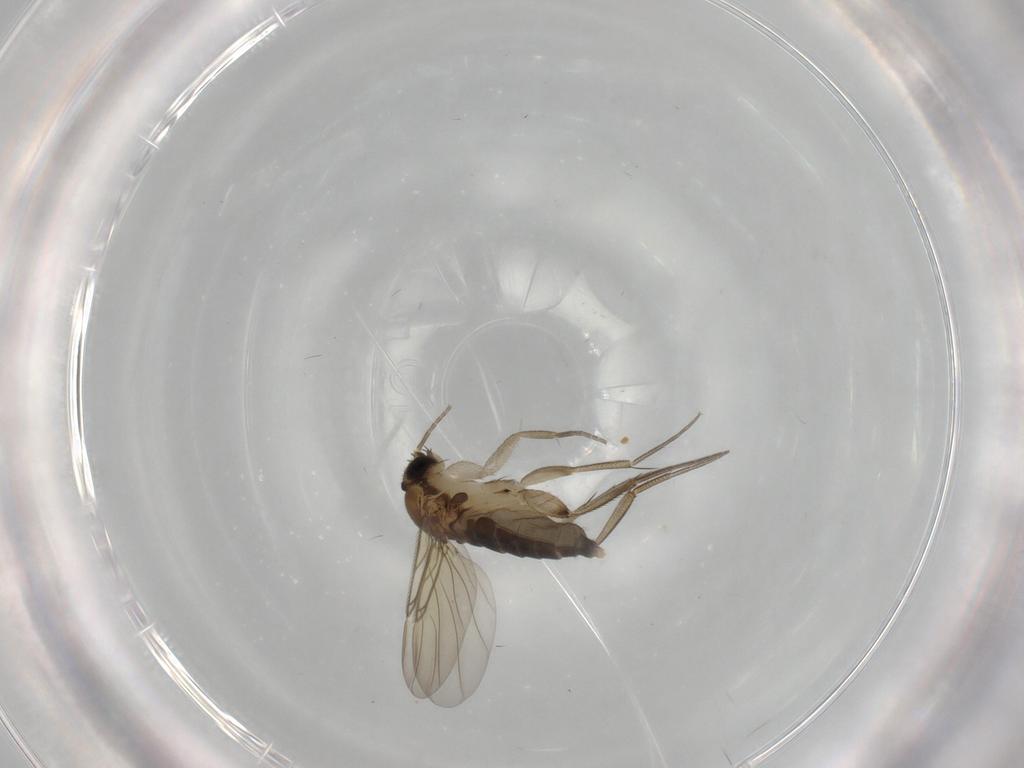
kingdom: Animalia
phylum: Arthropoda
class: Insecta
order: Diptera
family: Phoridae
